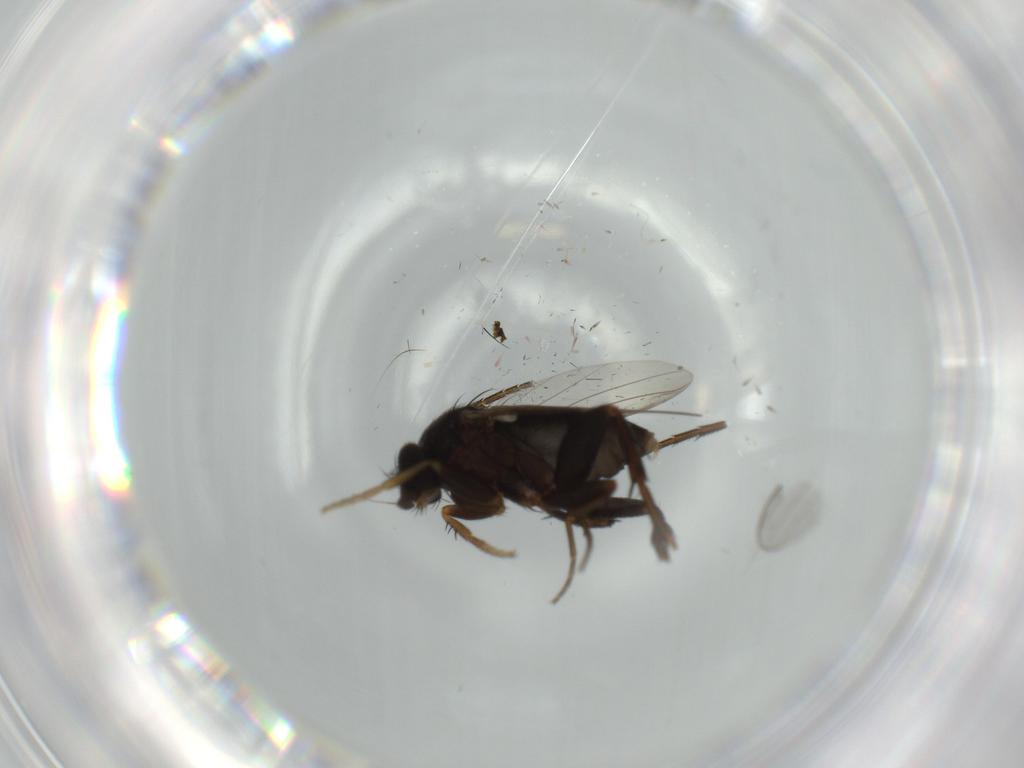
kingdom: Animalia
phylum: Arthropoda
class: Insecta
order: Diptera
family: Phoridae
